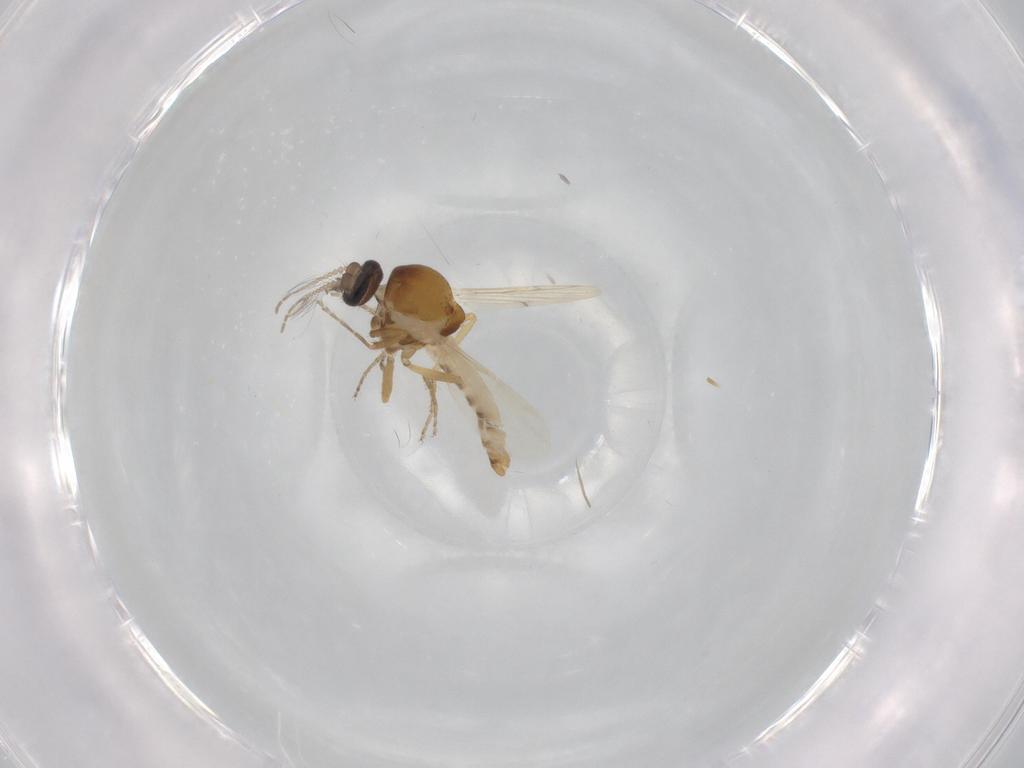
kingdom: Animalia
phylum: Arthropoda
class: Insecta
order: Diptera
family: Ceratopogonidae
